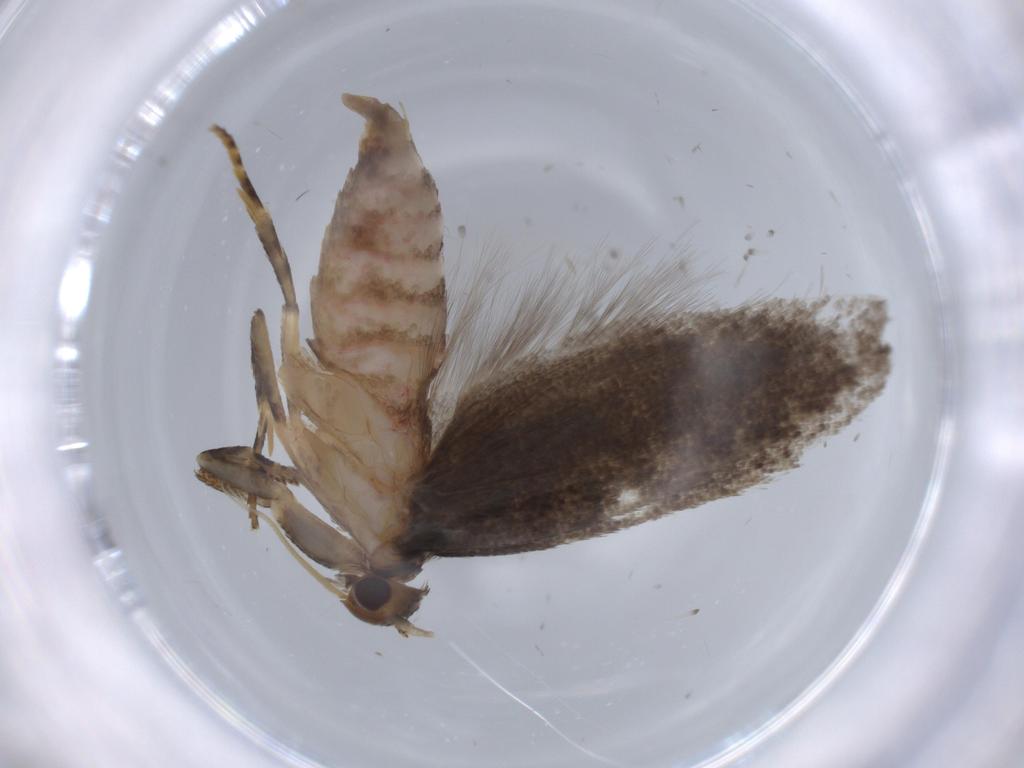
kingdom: Animalia
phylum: Arthropoda
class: Insecta
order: Lepidoptera
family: Oecophoridae
